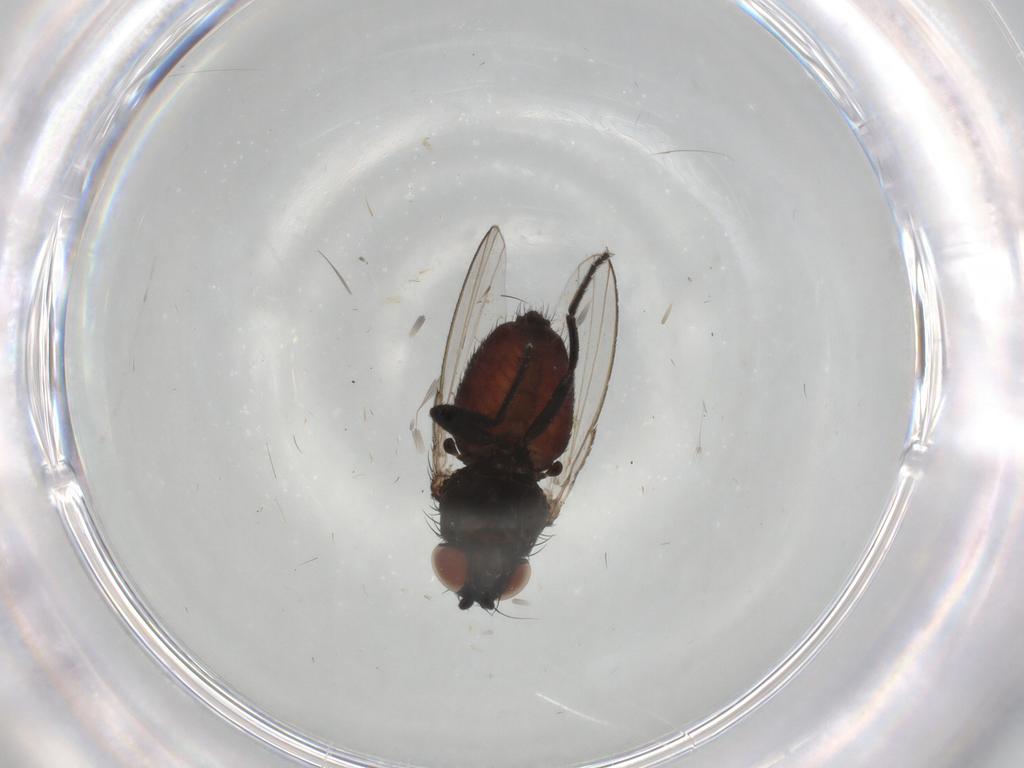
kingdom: Animalia
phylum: Arthropoda
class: Insecta
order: Diptera
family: Milichiidae
